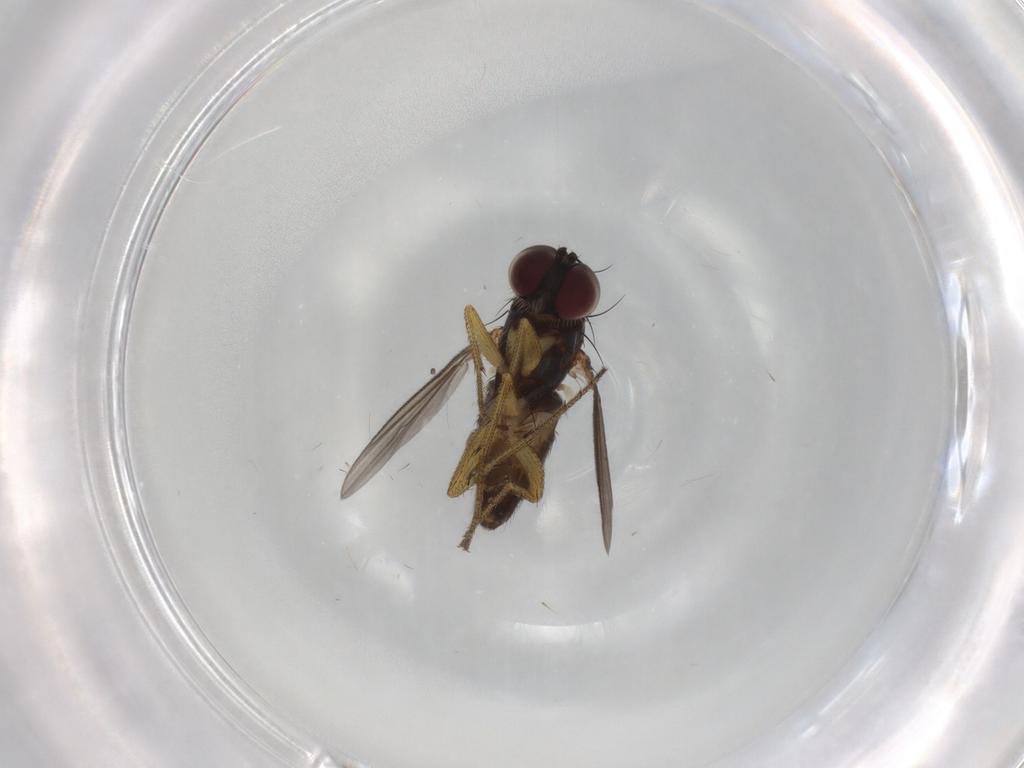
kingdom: Animalia
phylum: Arthropoda
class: Insecta
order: Diptera
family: Dolichopodidae
